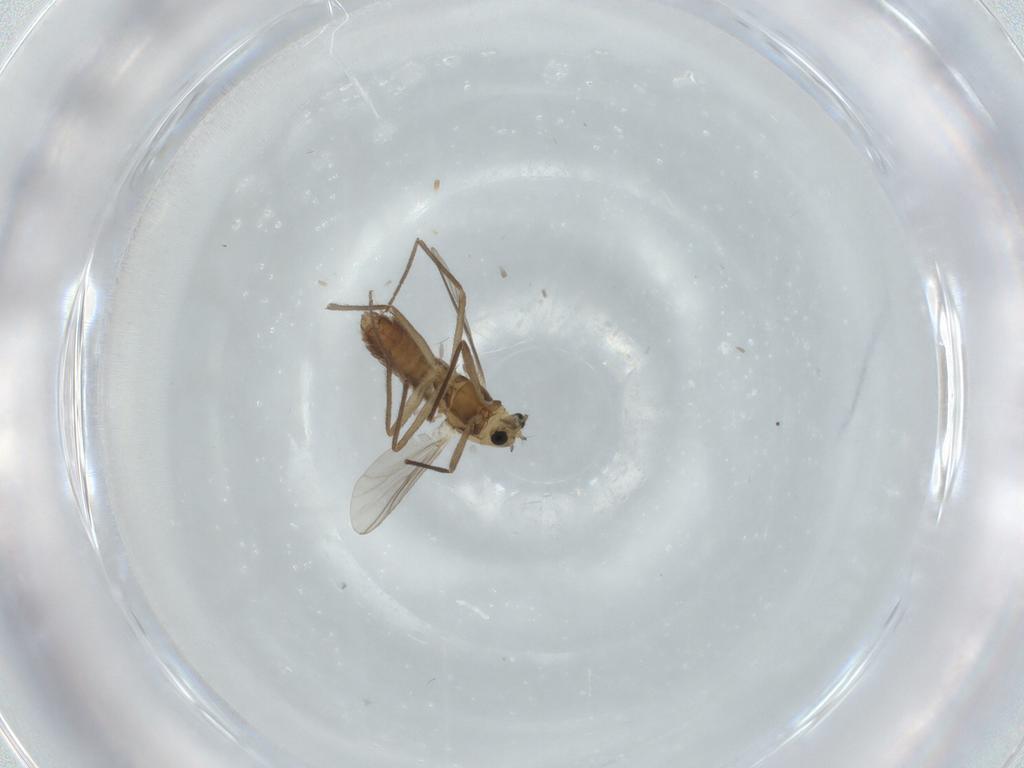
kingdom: Animalia
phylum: Arthropoda
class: Insecta
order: Diptera
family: Chironomidae
